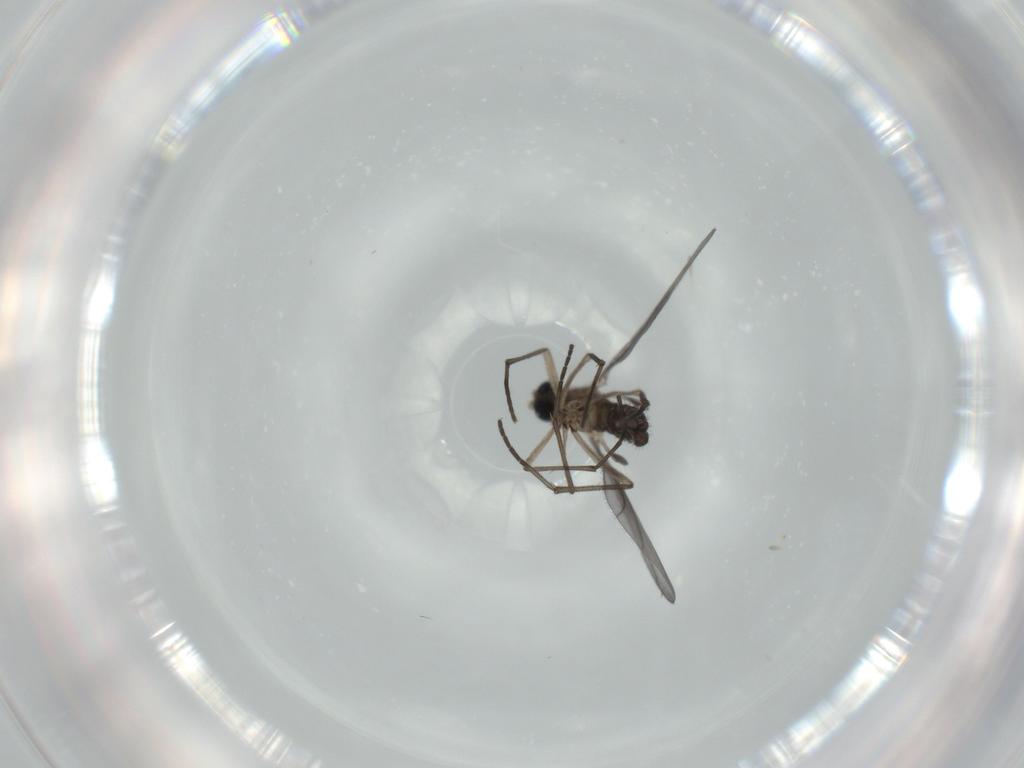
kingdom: Animalia
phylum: Arthropoda
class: Insecta
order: Diptera
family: Sciaridae
